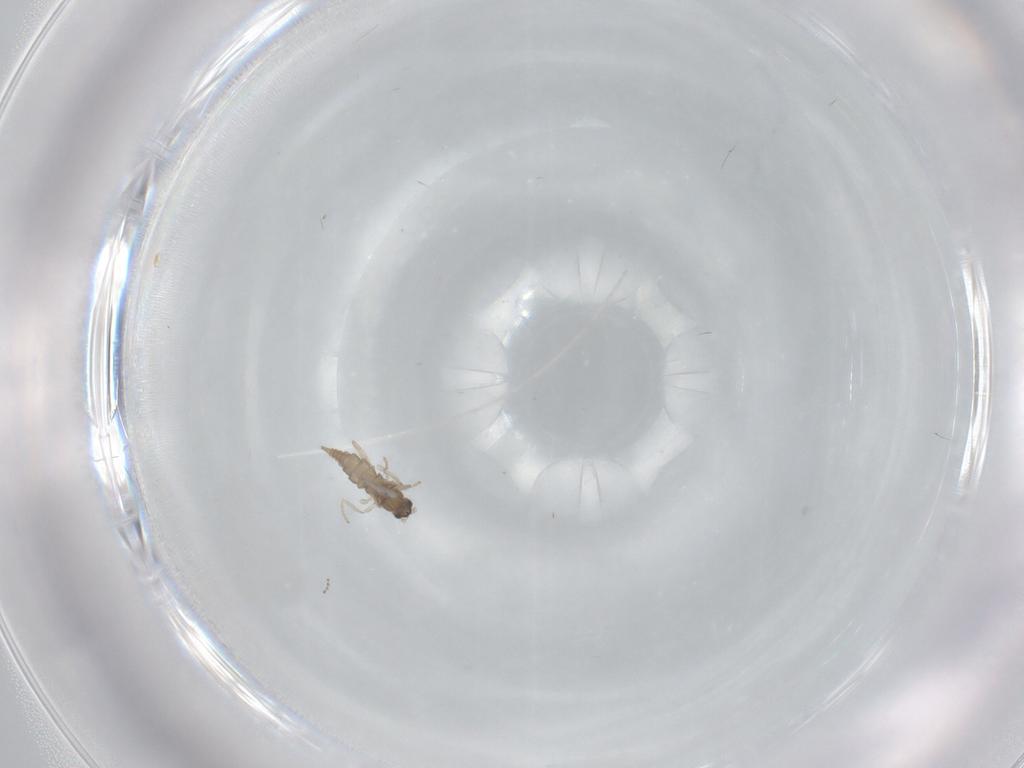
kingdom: Animalia
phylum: Arthropoda
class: Insecta
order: Diptera
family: Cecidomyiidae
